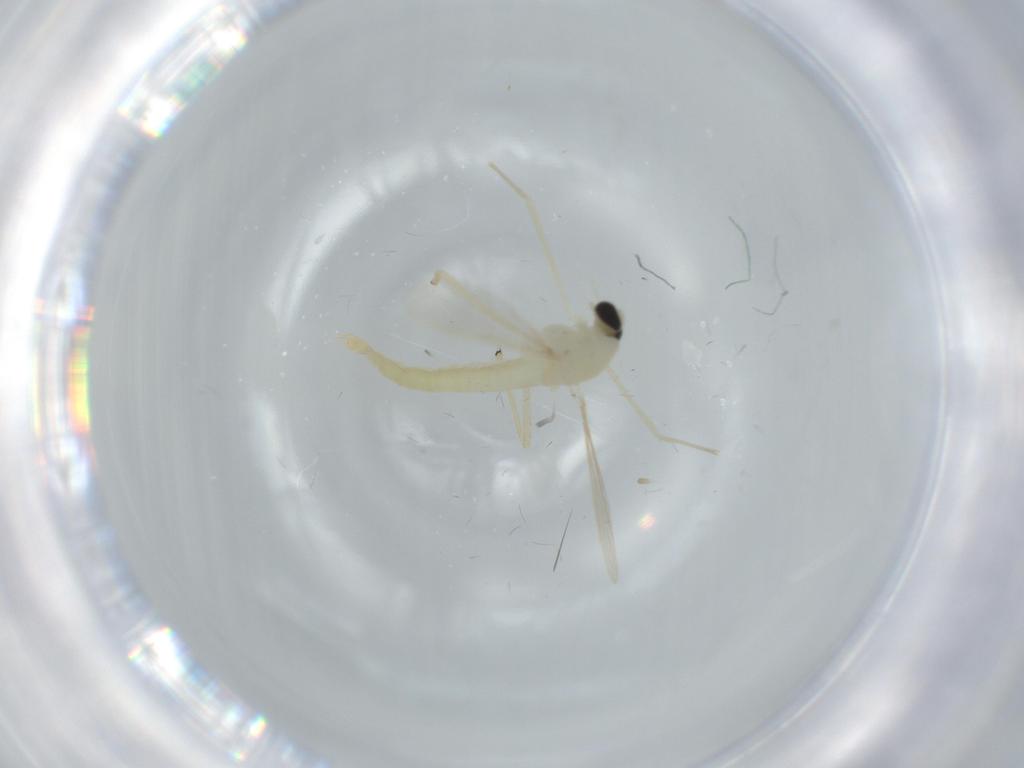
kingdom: Animalia
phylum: Arthropoda
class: Insecta
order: Diptera
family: Chironomidae
